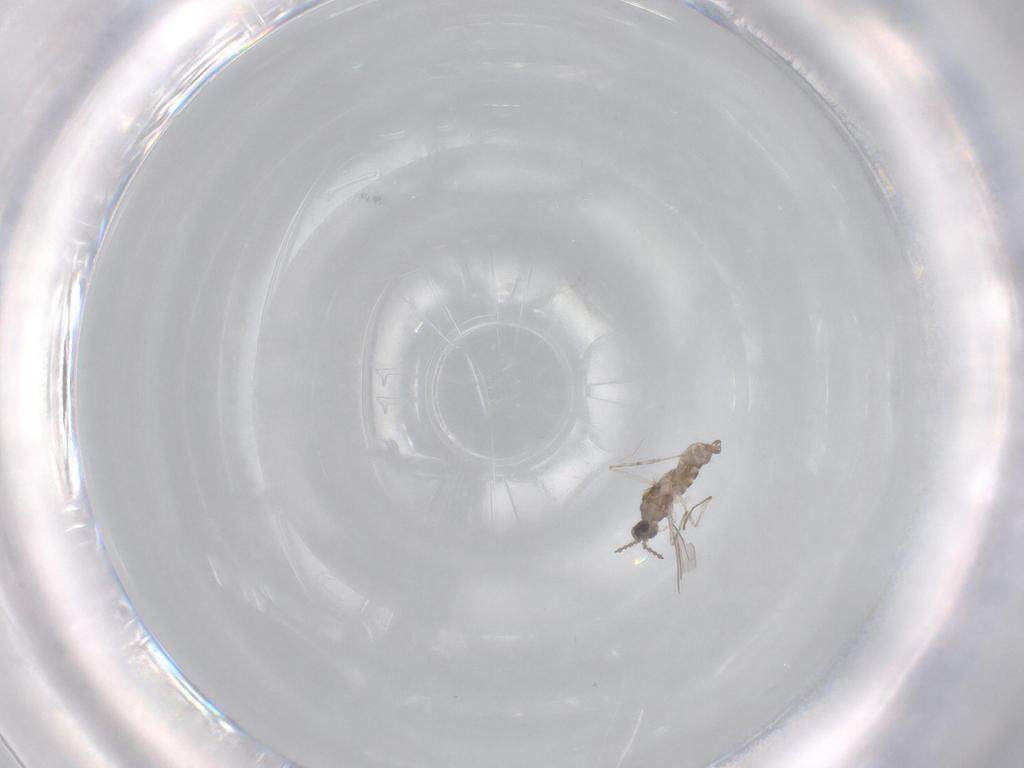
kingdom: Animalia
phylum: Arthropoda
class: Insecta
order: Diptera
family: Cecidomyiidae
